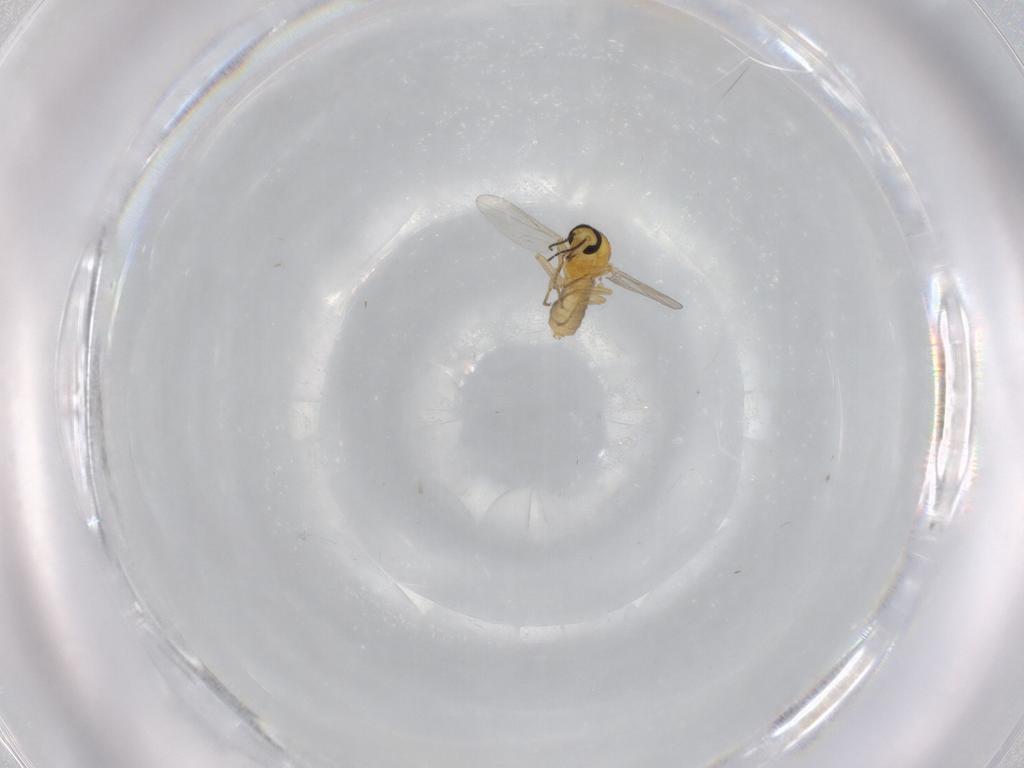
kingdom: Animalia
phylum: Arthropoda
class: Insecta
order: Diptera
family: Ceratopogonidae
